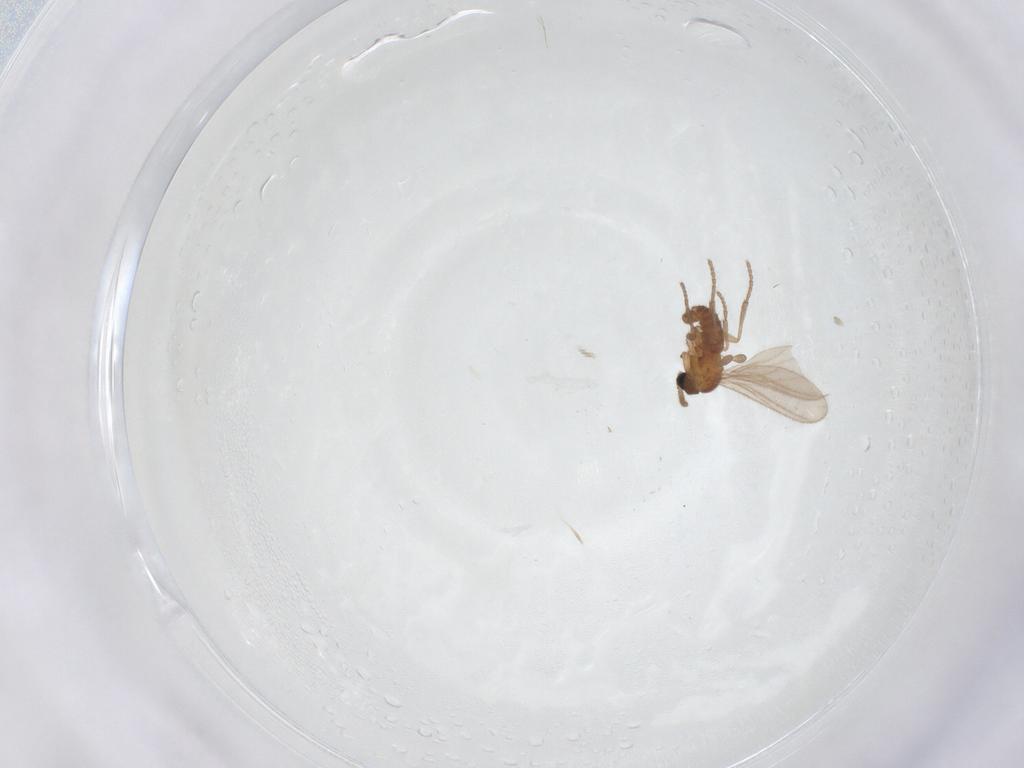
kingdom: Animalia
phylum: Arthropoda
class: Insecta
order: Diptera
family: Sciaridae
